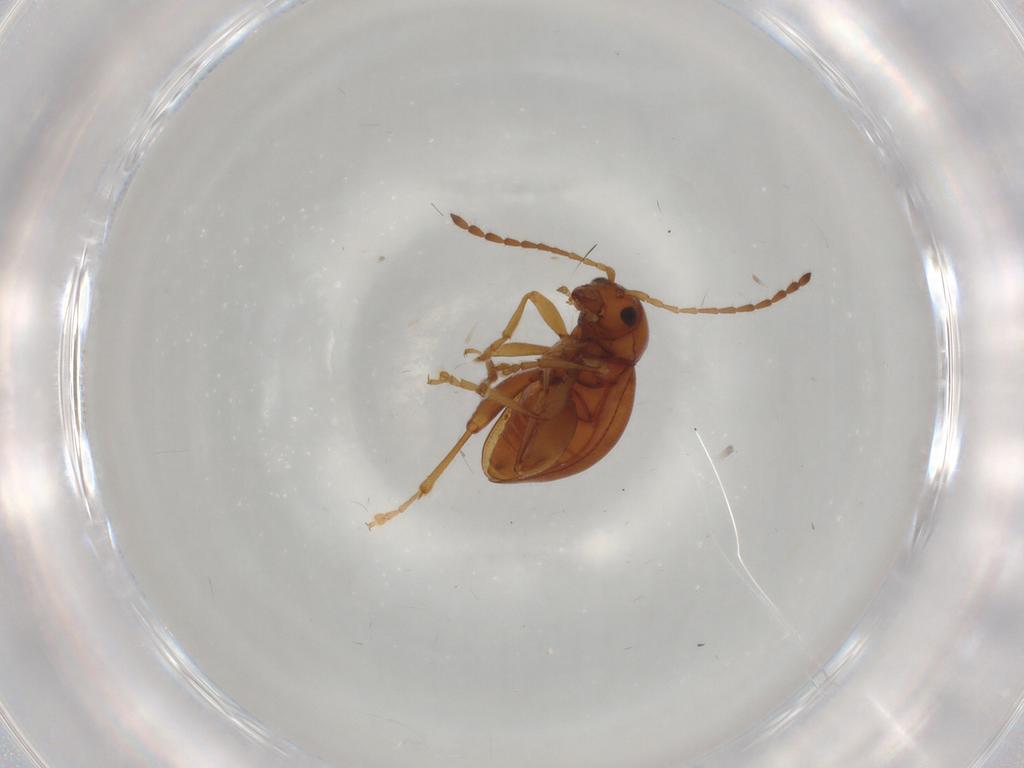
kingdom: Animalia
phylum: Arthropoda
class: Insecta
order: Coleoptera
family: Chrysomelidae
